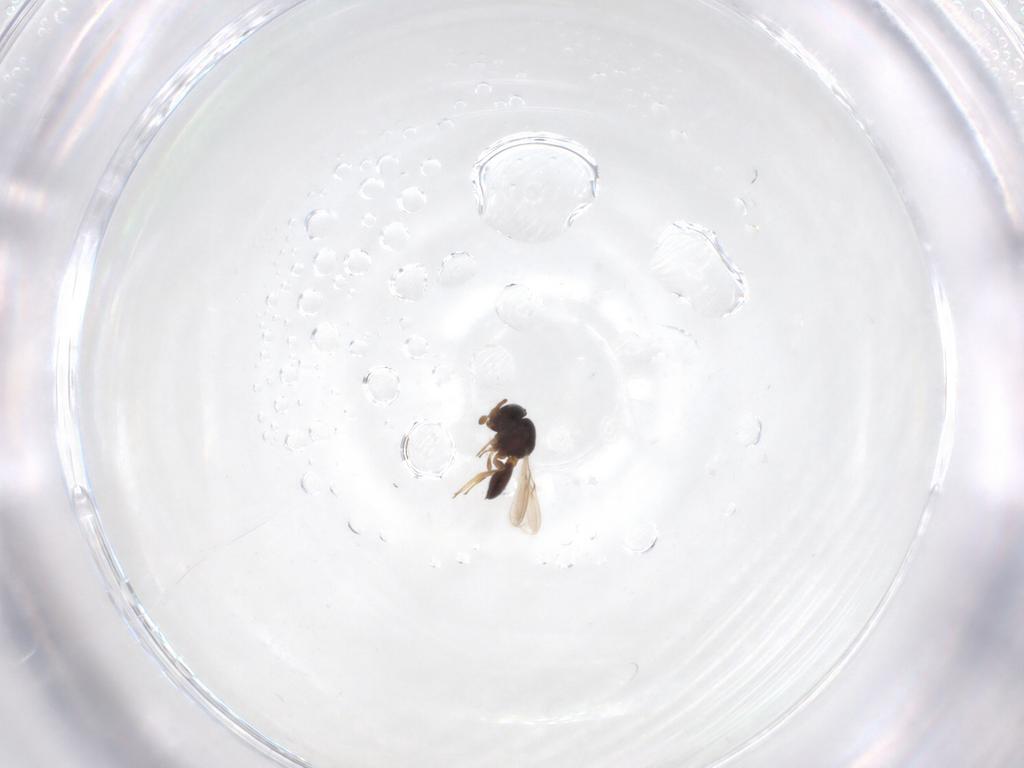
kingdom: Animalia
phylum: Arthropoda
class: Insecta
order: Hymenoptera
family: Scelionidae
